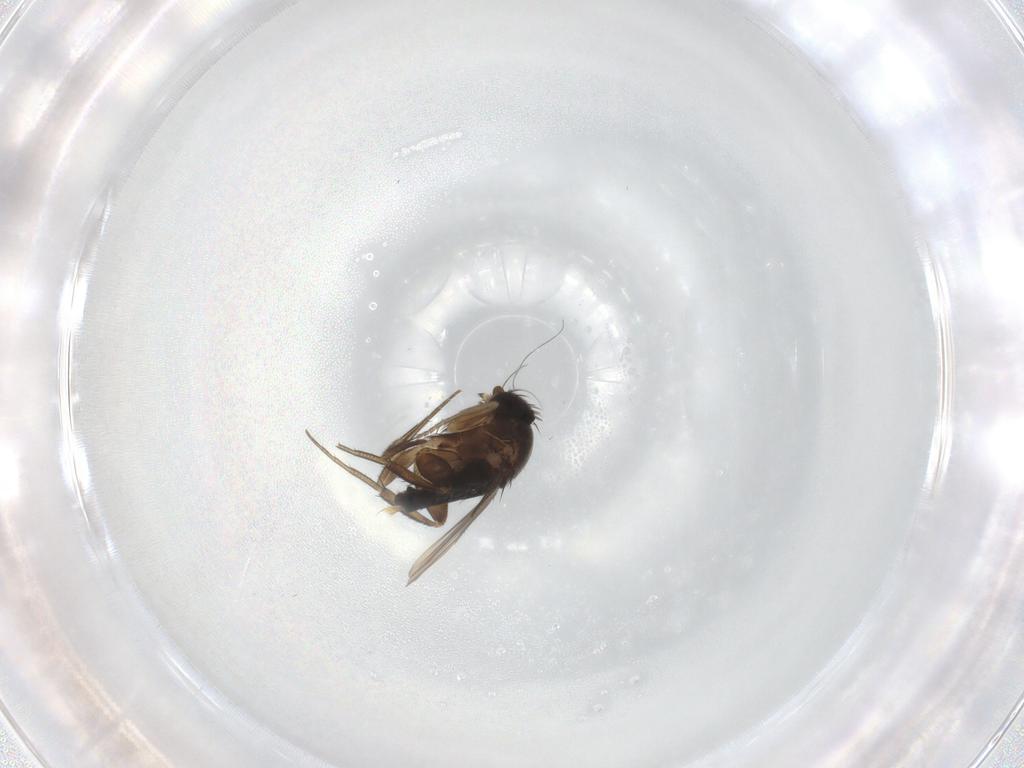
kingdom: Animalia
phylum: Arthropoda
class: Insecta
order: Diptera
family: Phoridae
